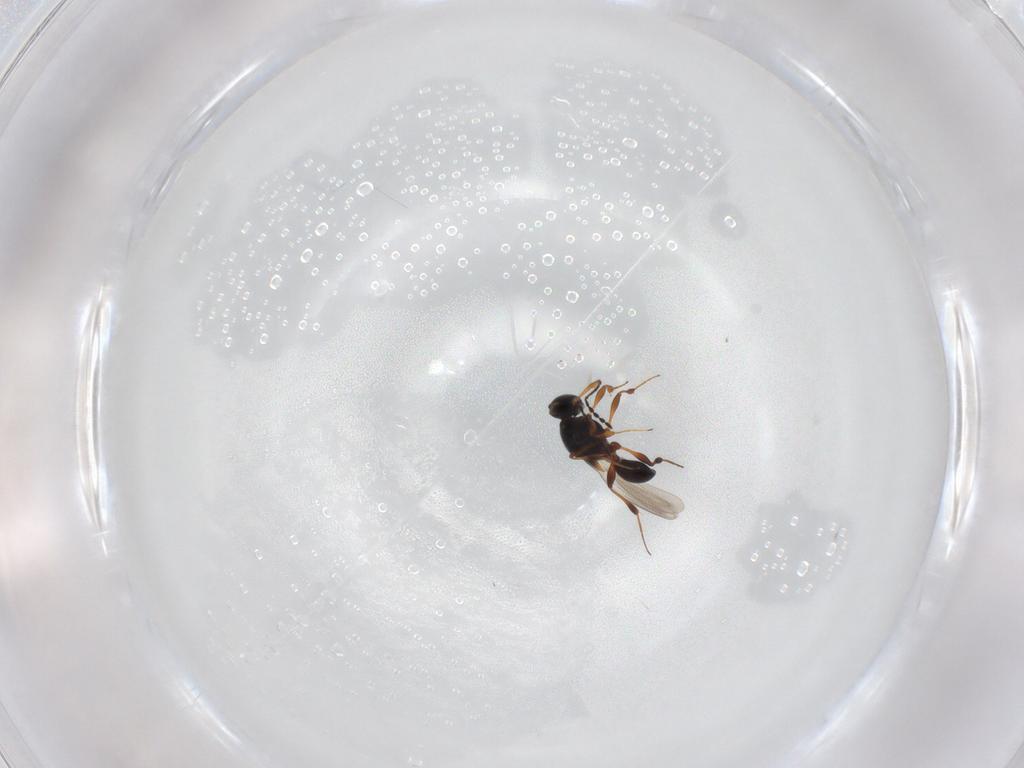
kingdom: Animalia
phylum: Arthropoda
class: Insecta
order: Hymenoptera
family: Platygastridae
